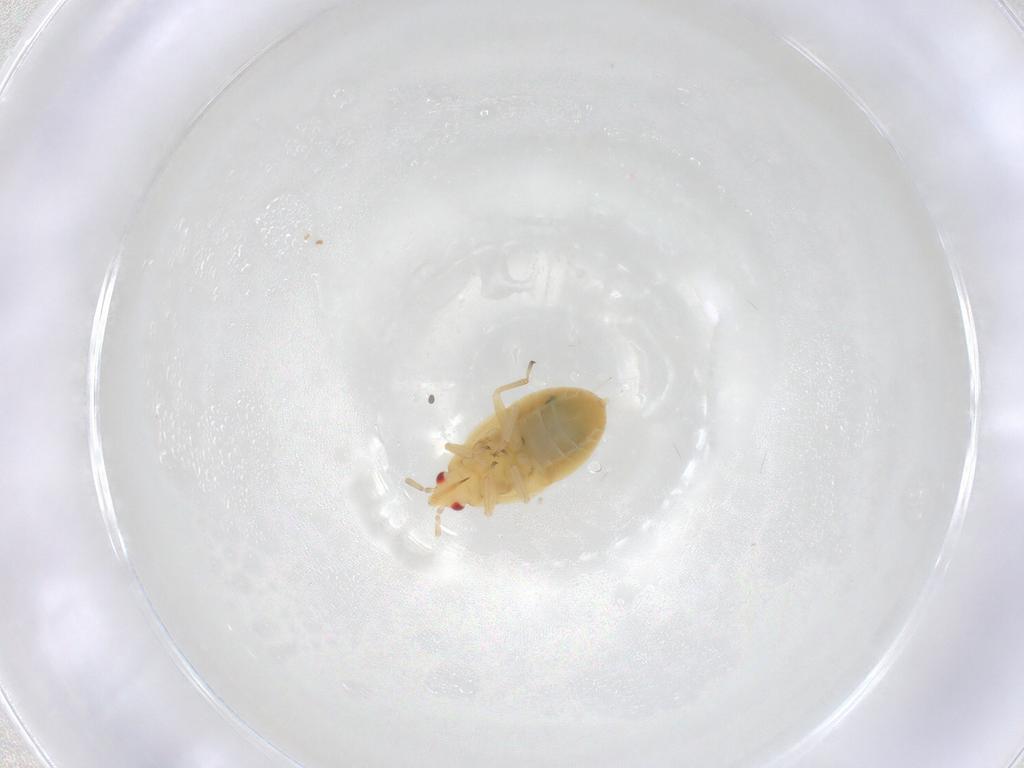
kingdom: Animalia
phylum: Arthropoda
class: Insecta
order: Hemiptera
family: Anthocoridae
